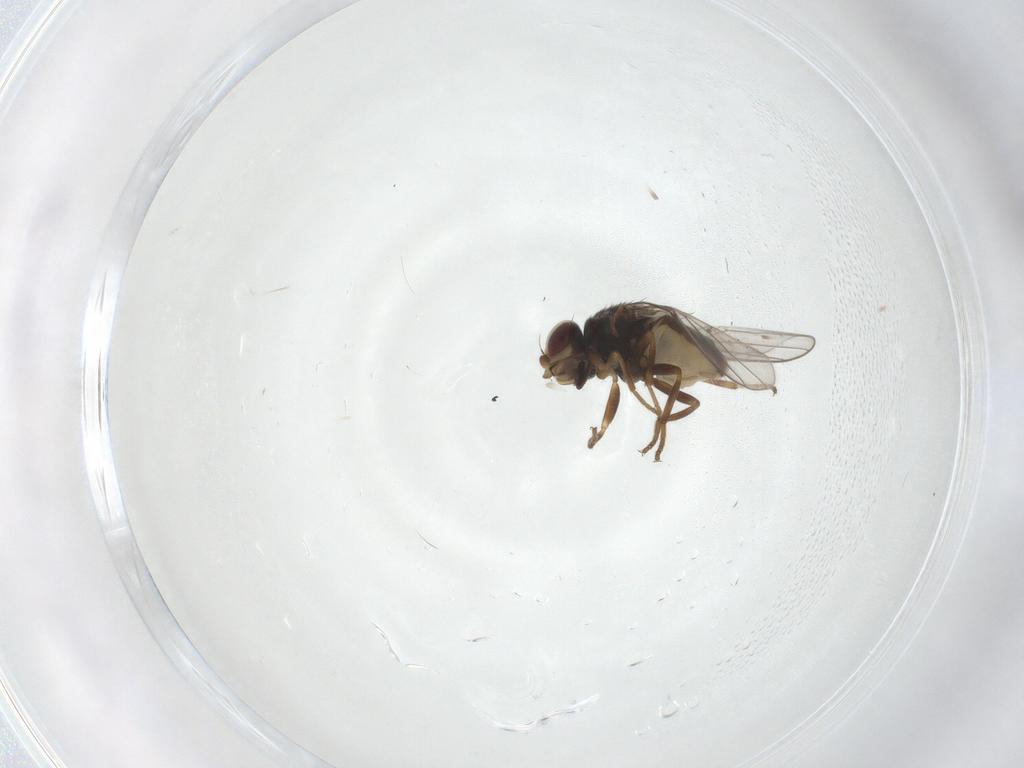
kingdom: Animalia
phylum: Arthropoda
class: Insecta
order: Diptera
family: Chloropidae
